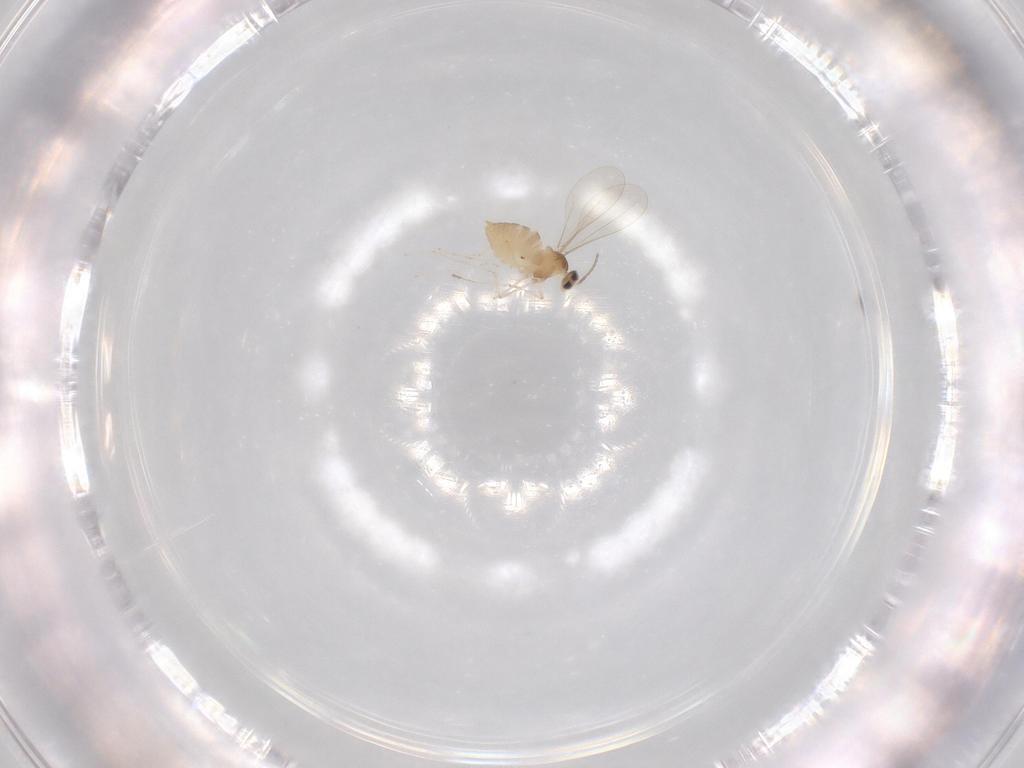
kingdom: Animalia
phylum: Arthropoda
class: Insecta
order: Diptera
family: Cecidomyiidae
